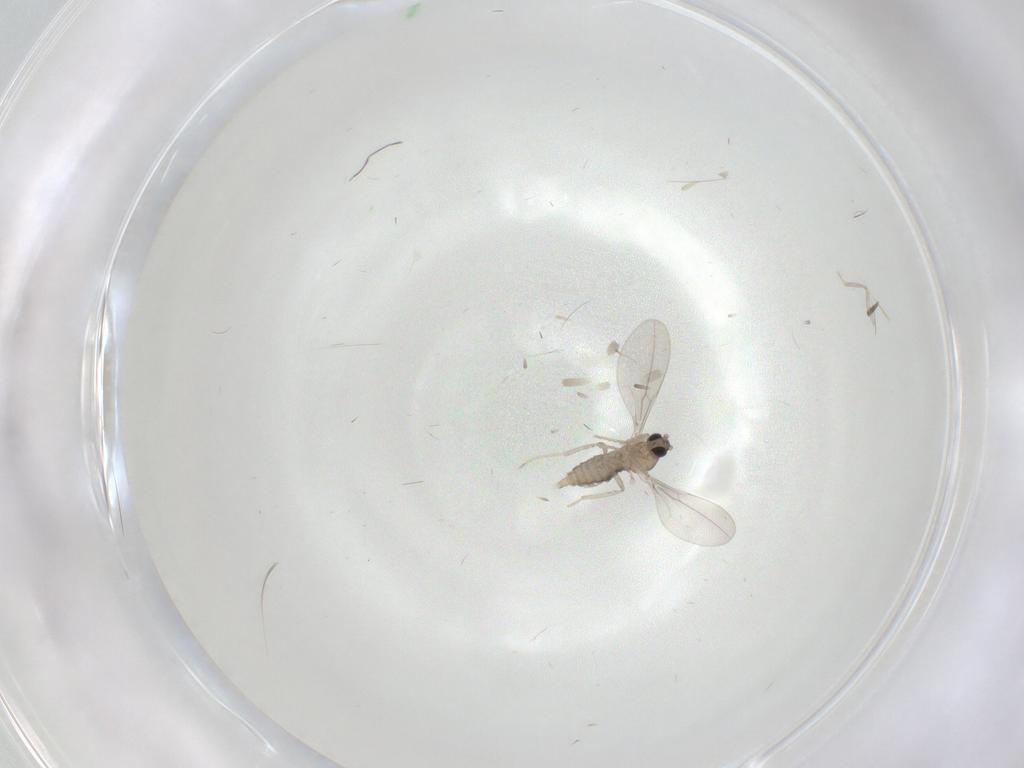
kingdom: Animalia
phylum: Arthropoda
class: Insecta
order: Diptera
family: Cecidomyiidae
